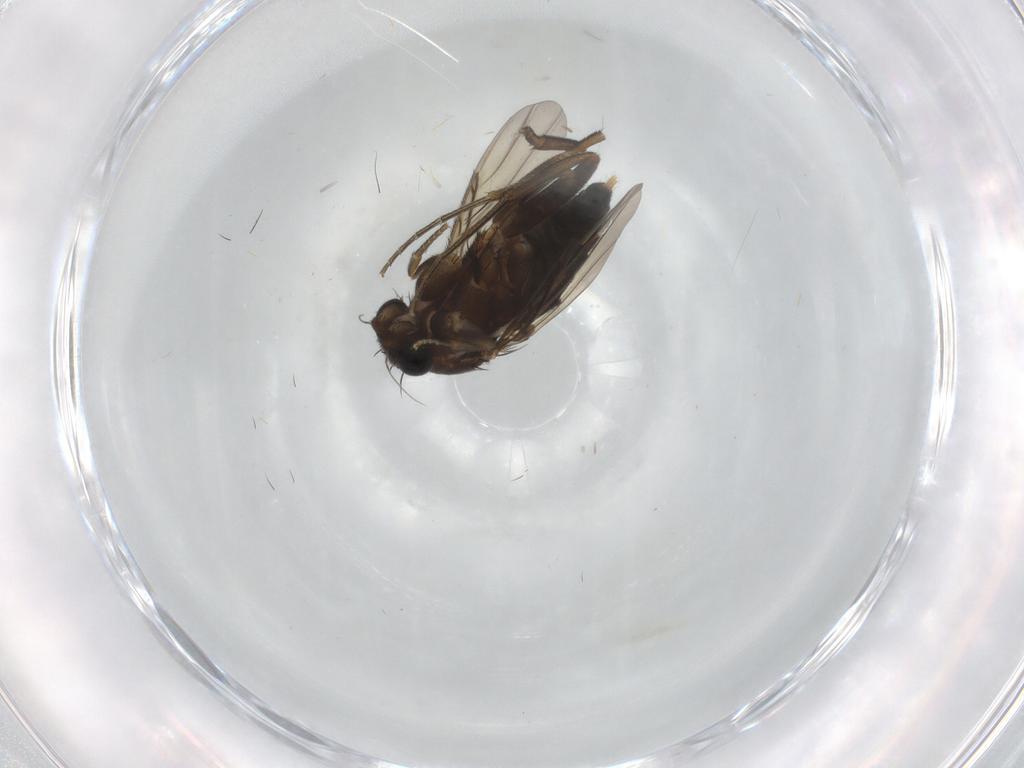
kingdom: Animalia
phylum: Arthropoda
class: Insecta
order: Diptera
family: Phoridae
